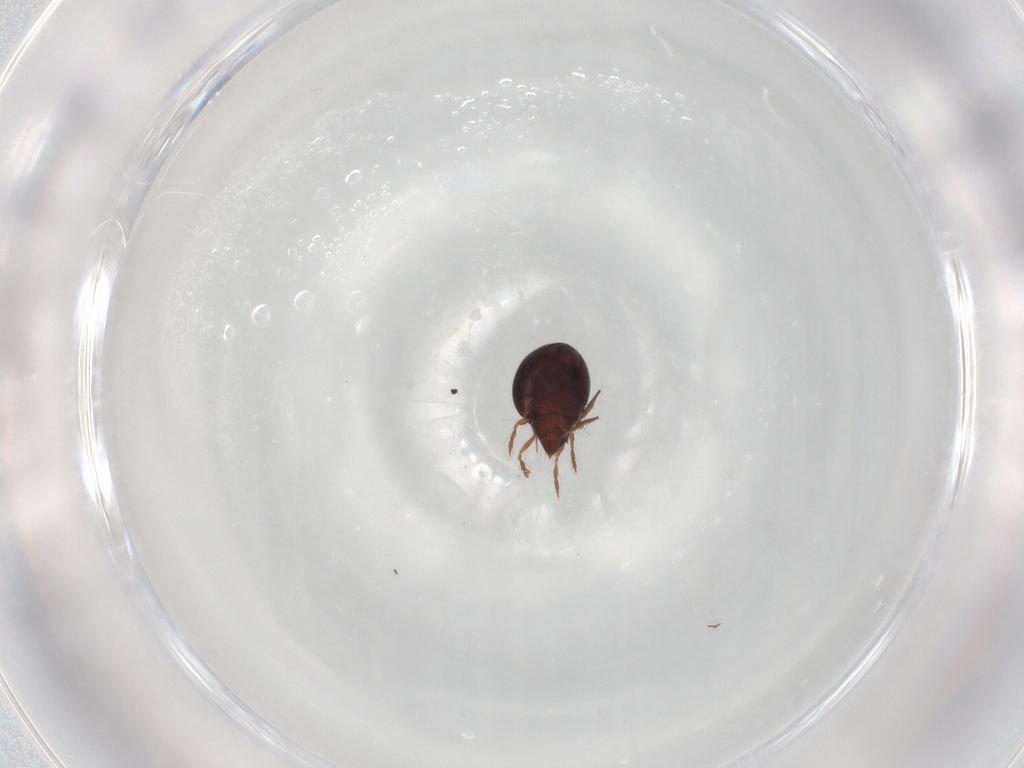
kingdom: Animalia
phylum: Arthropoda
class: Arachnida
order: Sarcoptiformes
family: Ceratoppiidae
